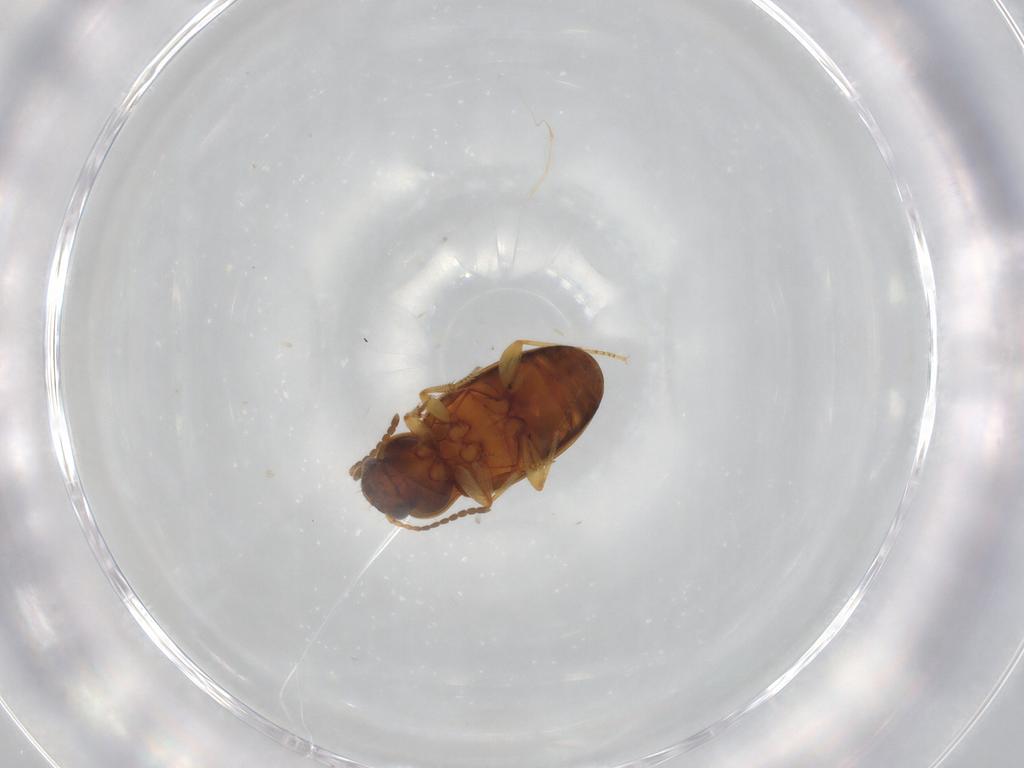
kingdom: Animalia
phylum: Arthropoda
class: Insecta
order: Coleoptera
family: Carabidae
